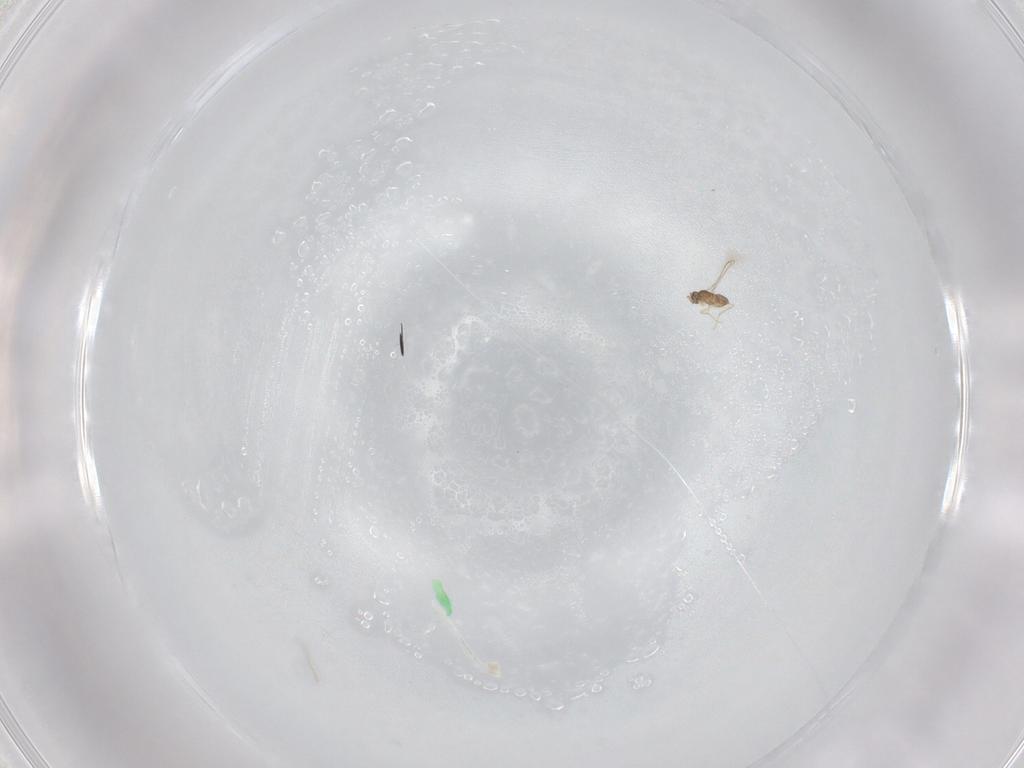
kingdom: Animalia
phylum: Arthropoda
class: Insecta
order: Hymenoptera
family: Mymaridae
